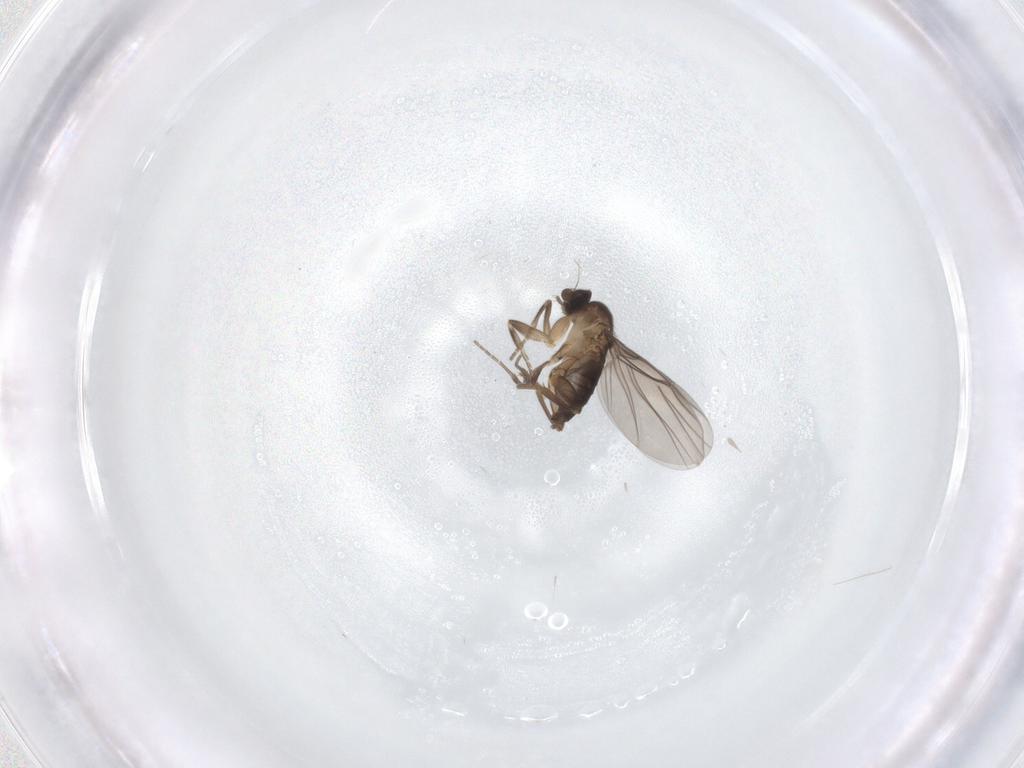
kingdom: Animalia
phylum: Arthropoda
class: Insecta
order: Diptera
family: Phoridae
